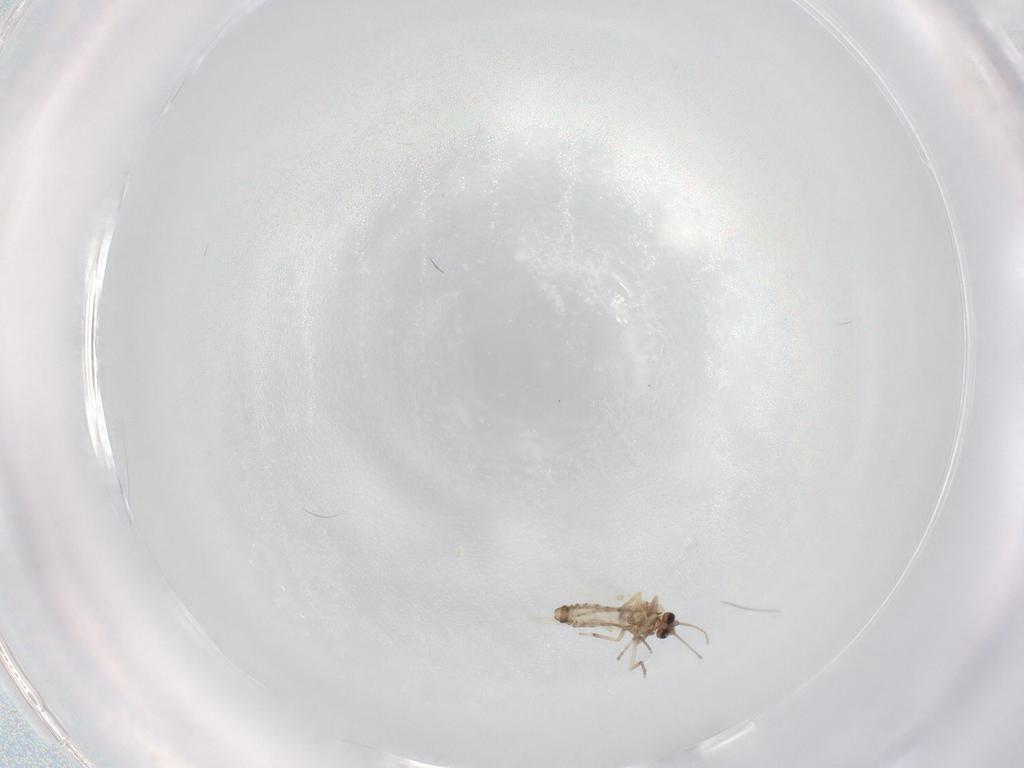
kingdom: Animalia
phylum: Arthropoda
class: Insecta
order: Diptera
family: Ceratopogonidae
